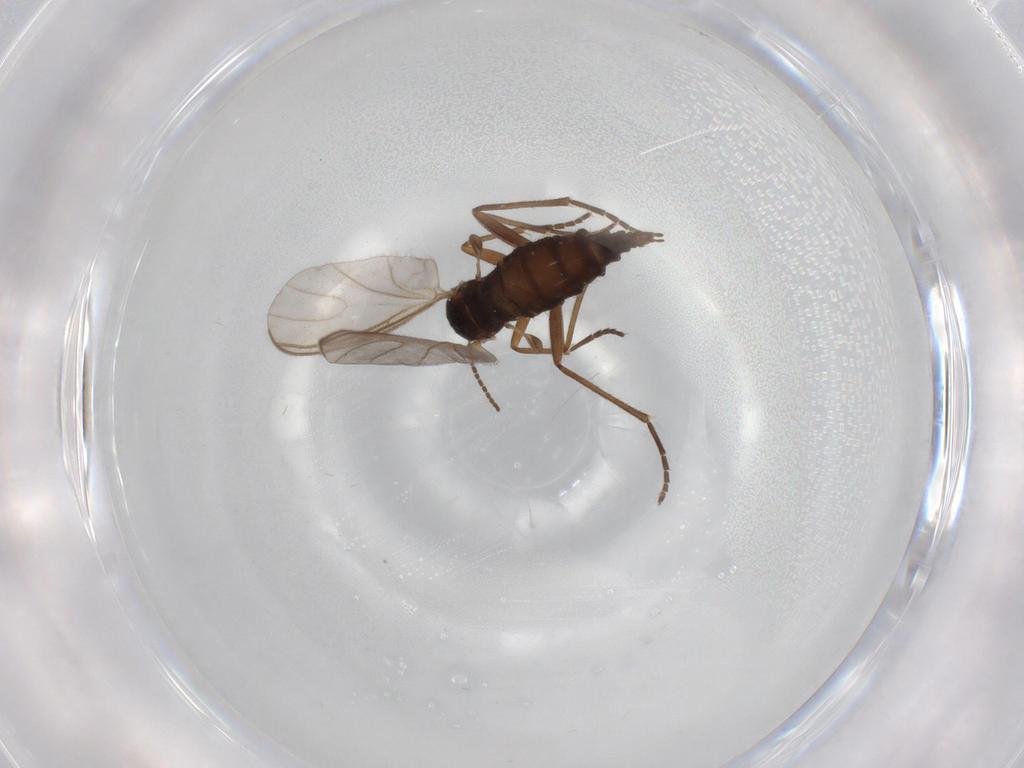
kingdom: Animalia
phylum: Arthropoda
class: Insecta
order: Diptera
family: Sciaridae
